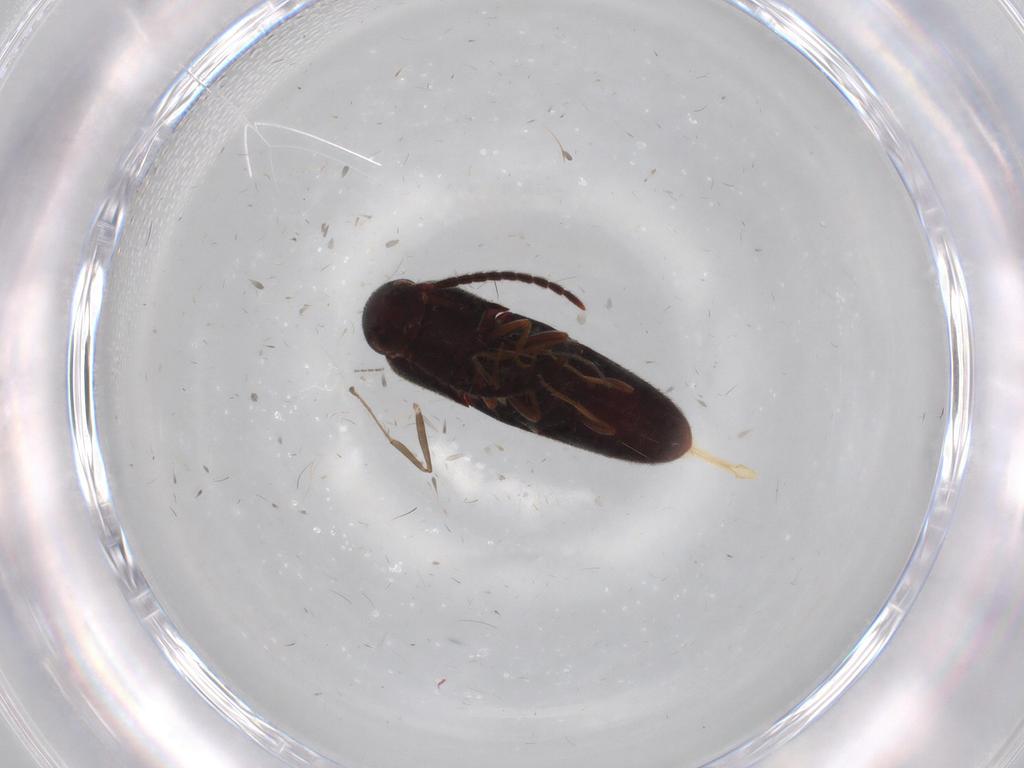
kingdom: Animalia
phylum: Arthropoda
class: Insecta
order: Coleoptera
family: Eucnemidae
